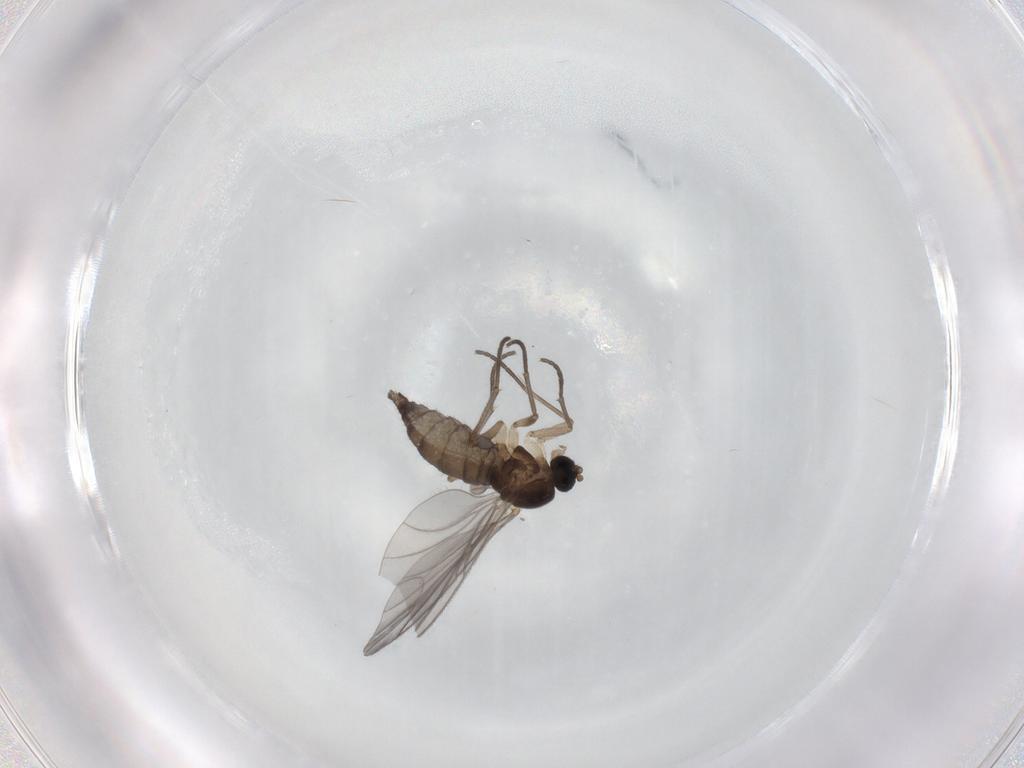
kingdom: Animalia
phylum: Arthropoda
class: Insecta
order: Diptera
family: Sciaridae
